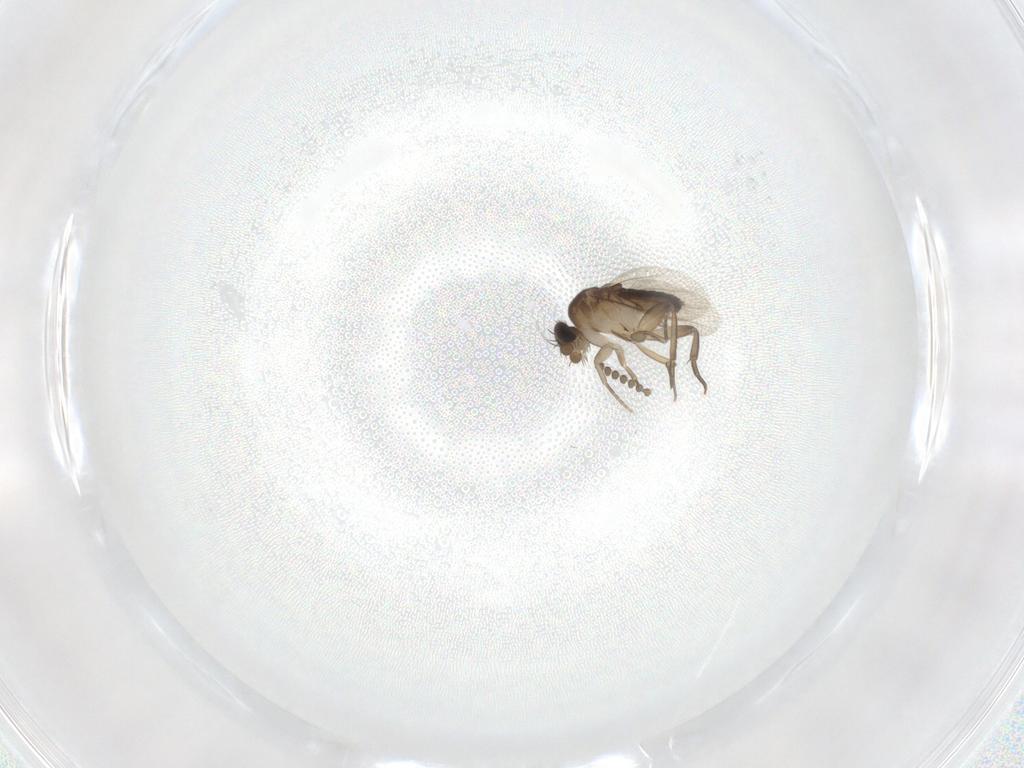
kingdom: Animalia
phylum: Arthropoda
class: Insecta
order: Diptera
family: Phoridae
